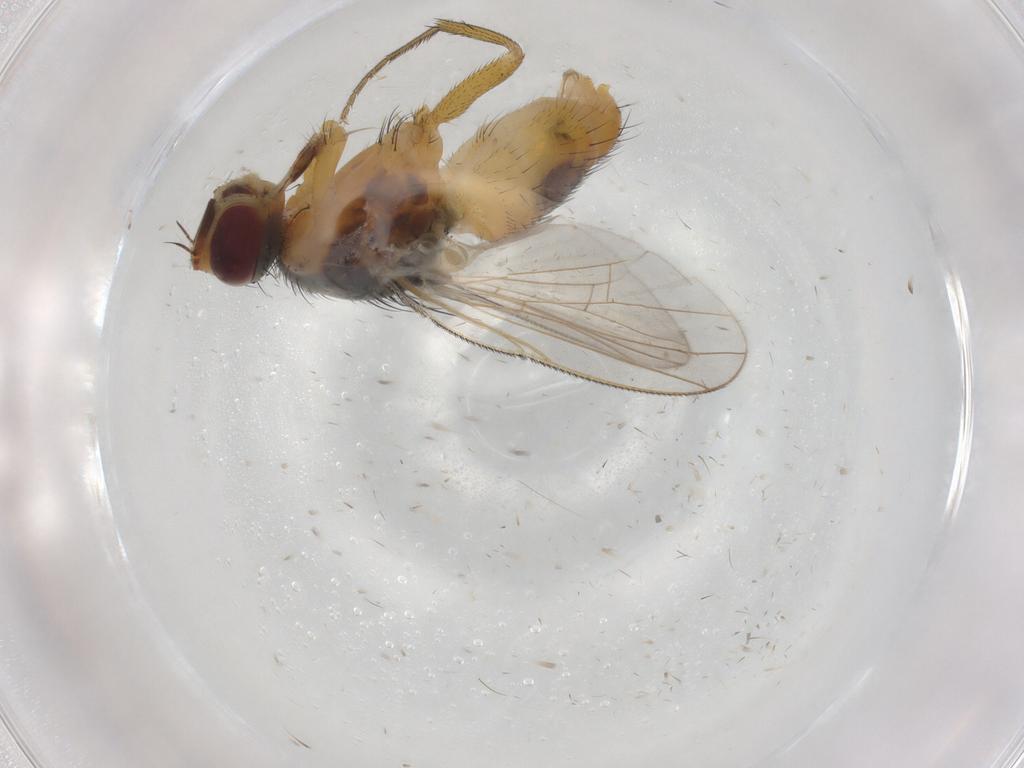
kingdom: Animalia
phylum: Arthropoda
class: Insecta
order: Diptera
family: Muscidae
